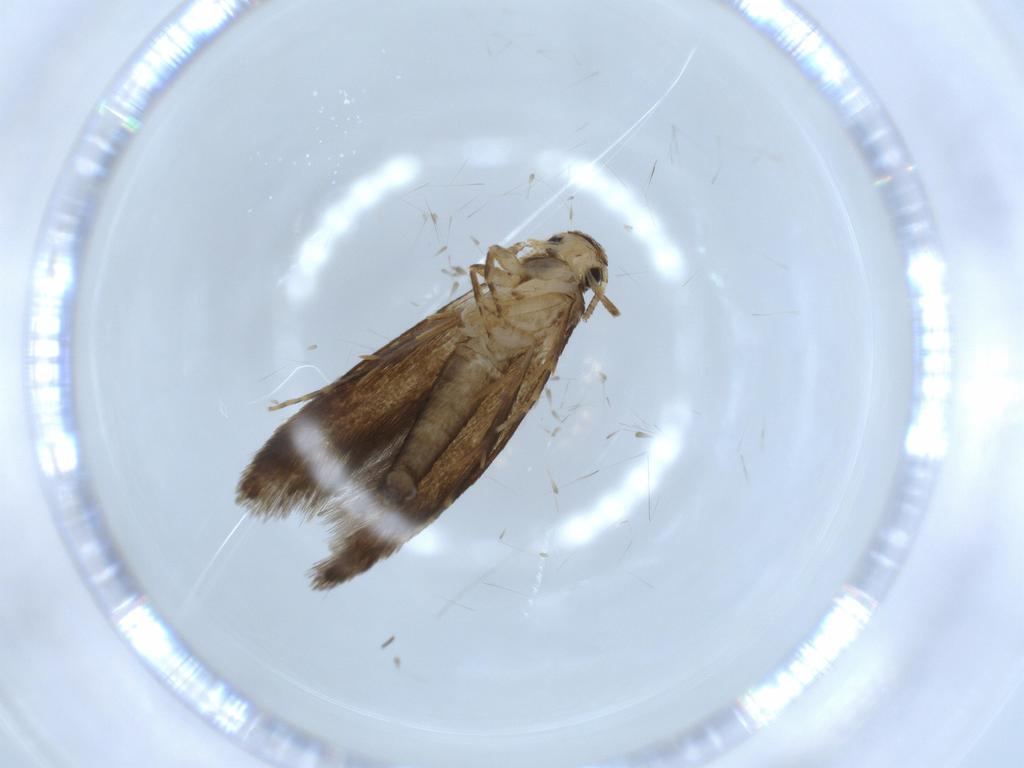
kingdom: Animalia
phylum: Arthropoda
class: Insecta
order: Lepidoptera
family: Tineidae
